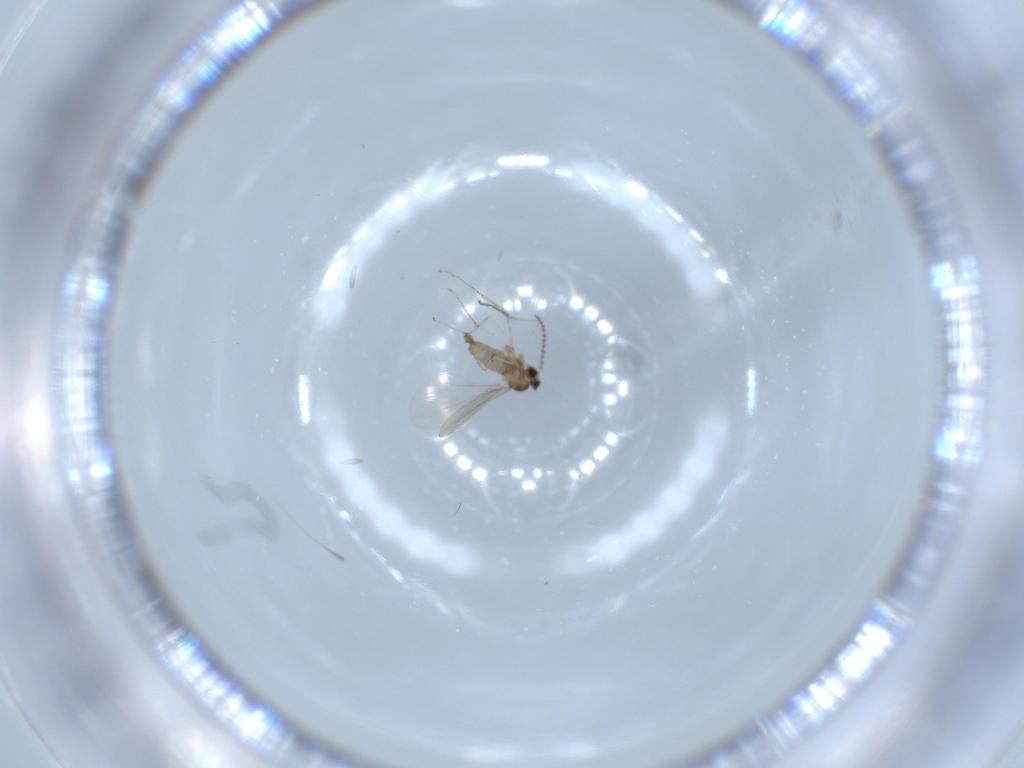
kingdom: Animalia
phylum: Arthropoda
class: Insecta
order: Diptera
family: Cecidomyiidae
